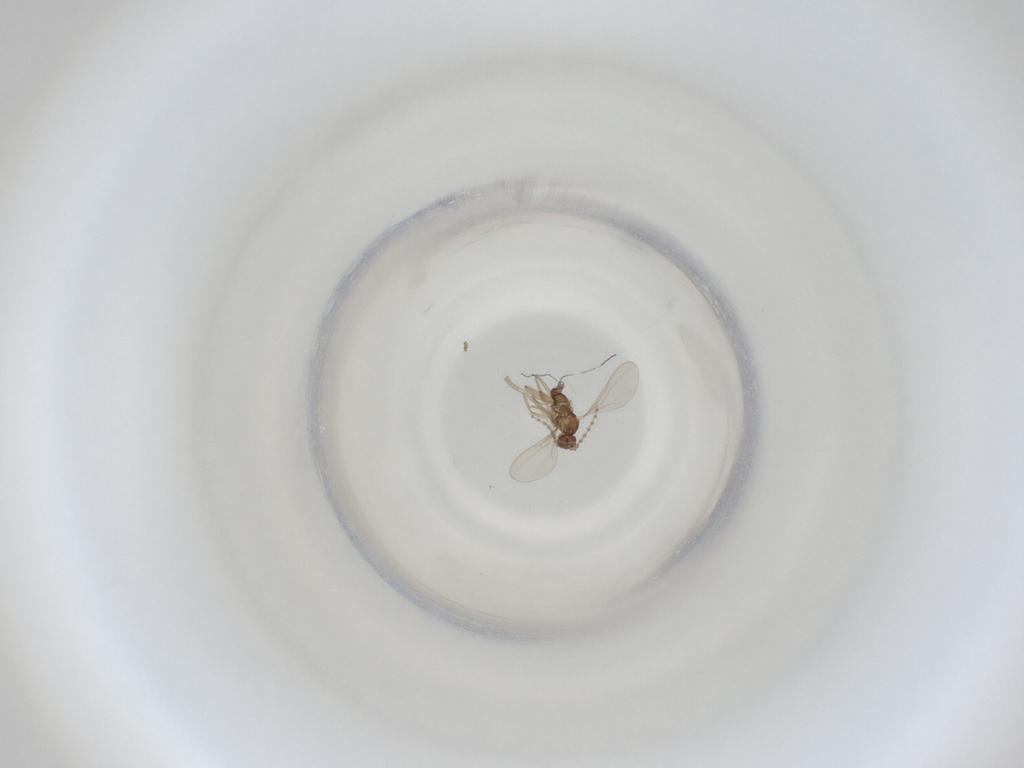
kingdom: Animalia
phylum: Arthropoda
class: Insecta
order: Diptera
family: Cecidomyiidae
